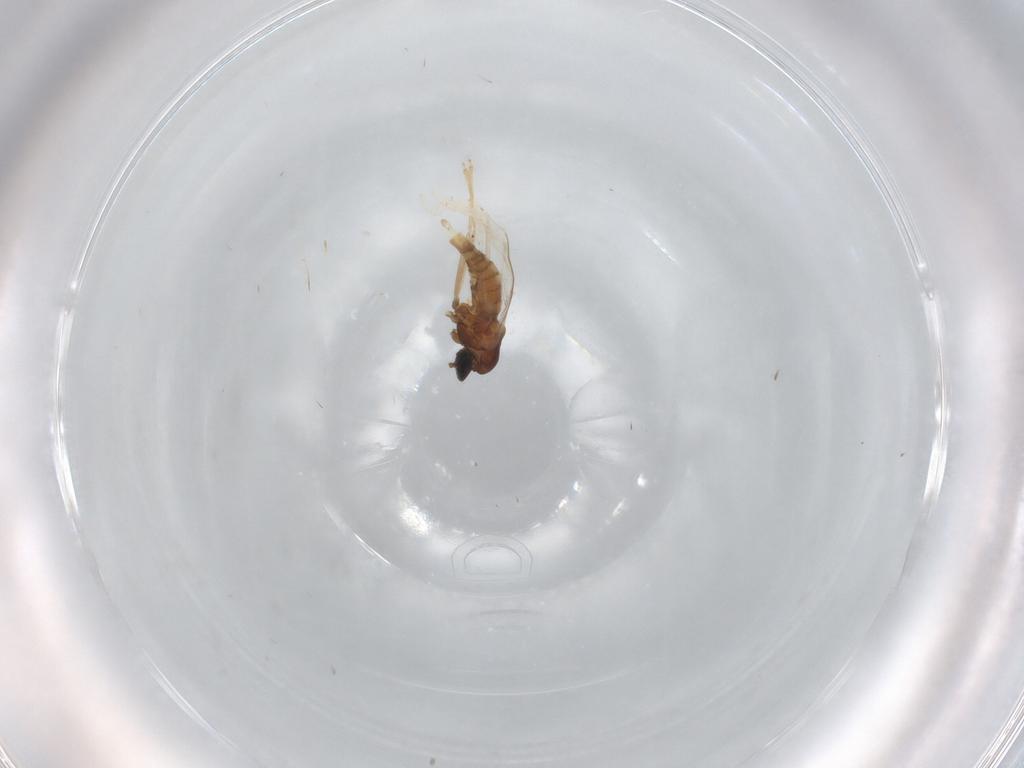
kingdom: Animalia
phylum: Arthropoda
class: Insecta
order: Diptera
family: Cecidomyiidae
